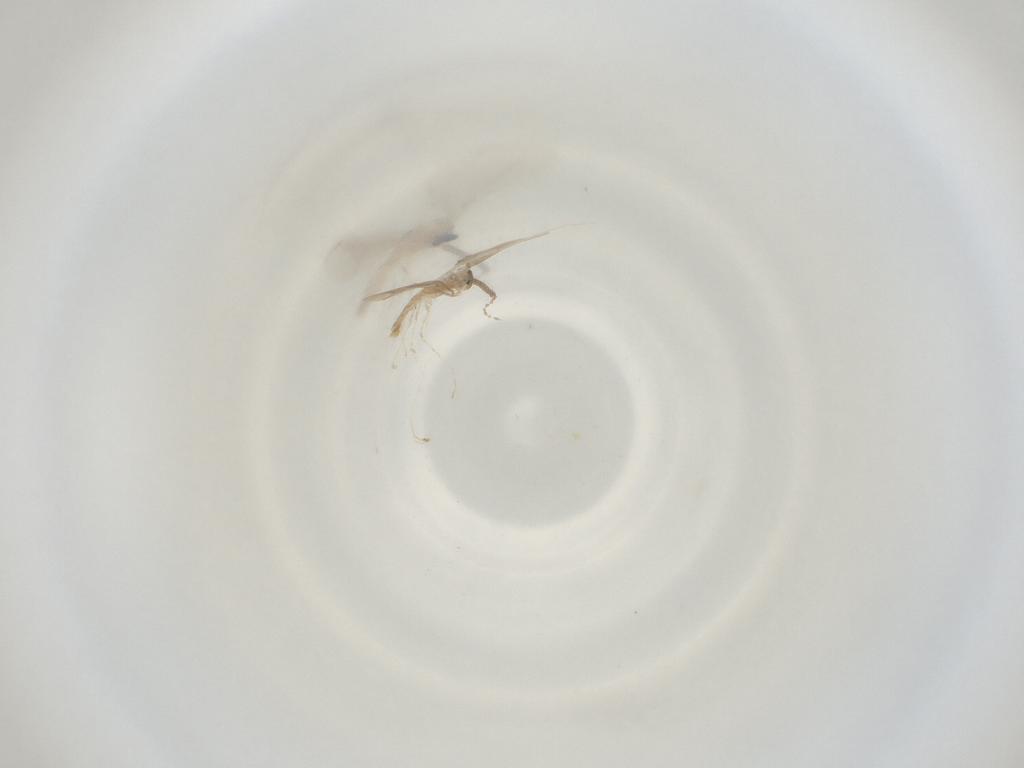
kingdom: Animalia
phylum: Arthropoda
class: Insecta
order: Diptera
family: Cecidomyiidae
